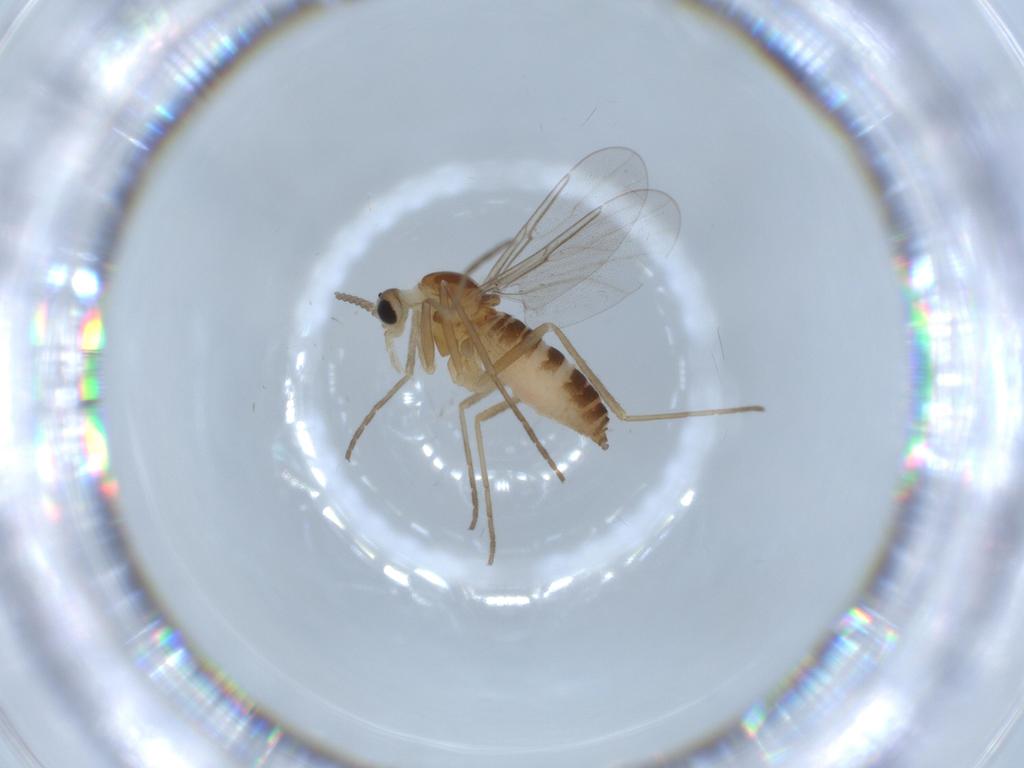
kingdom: Animalia
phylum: Arthropoda
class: Insecta
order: Diptera
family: Cecidomyiidae
